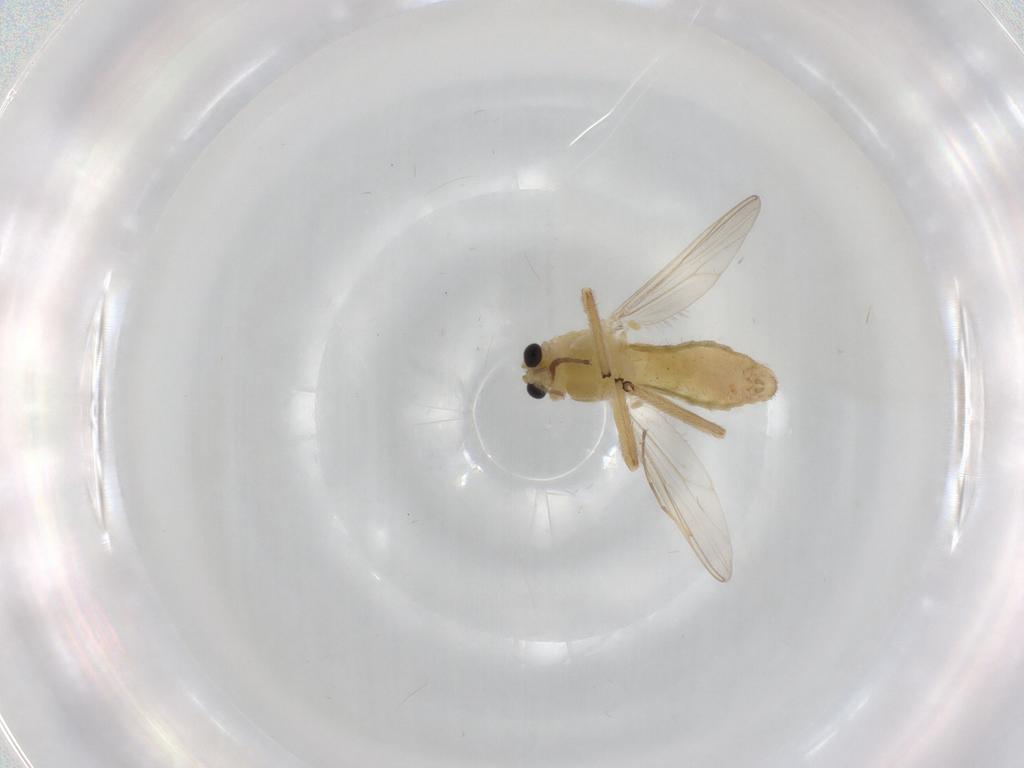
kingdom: Animalia
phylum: Arthropoda
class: Insecta
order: Diptera
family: Chironomidae
